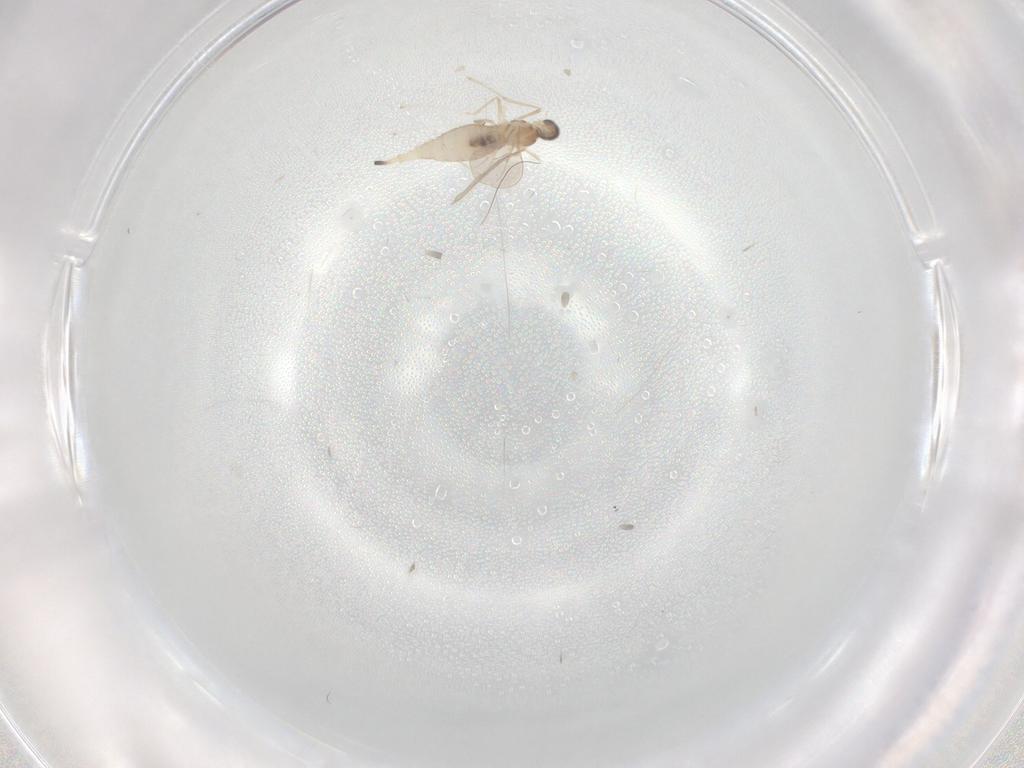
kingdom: Animalia
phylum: Arthropoda
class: Insecta
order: Diptera
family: Cecidomyiidae
